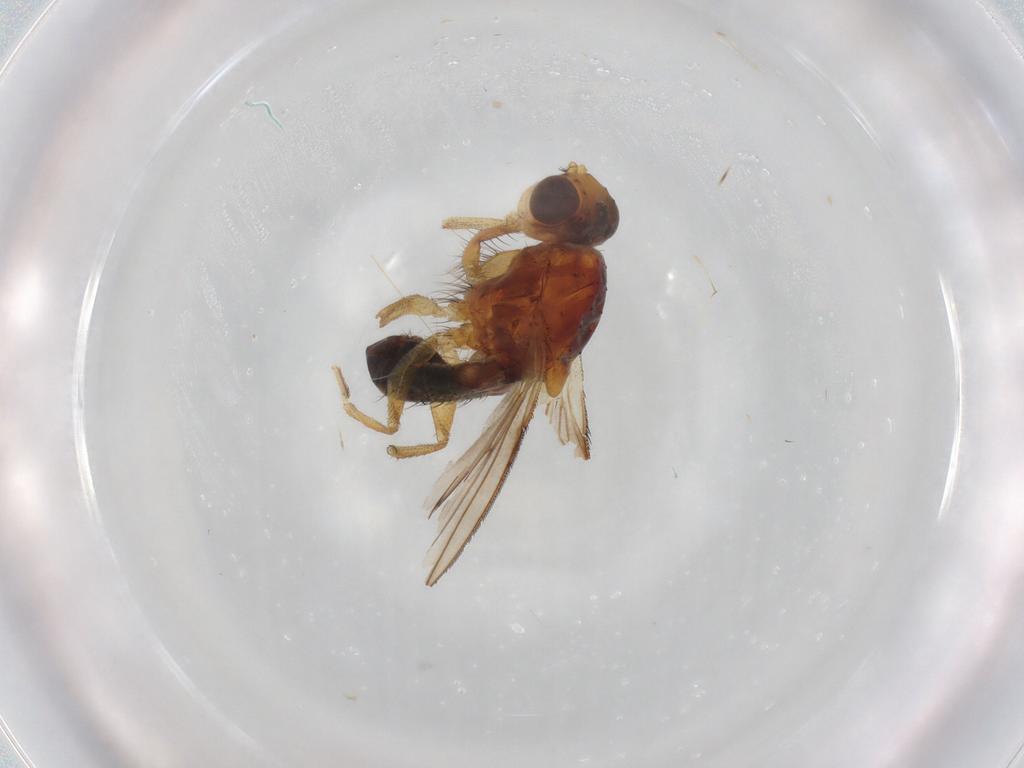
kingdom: Animalia
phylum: Arthropoda
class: Insecta
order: Diptera
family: Sphaeroceridae
